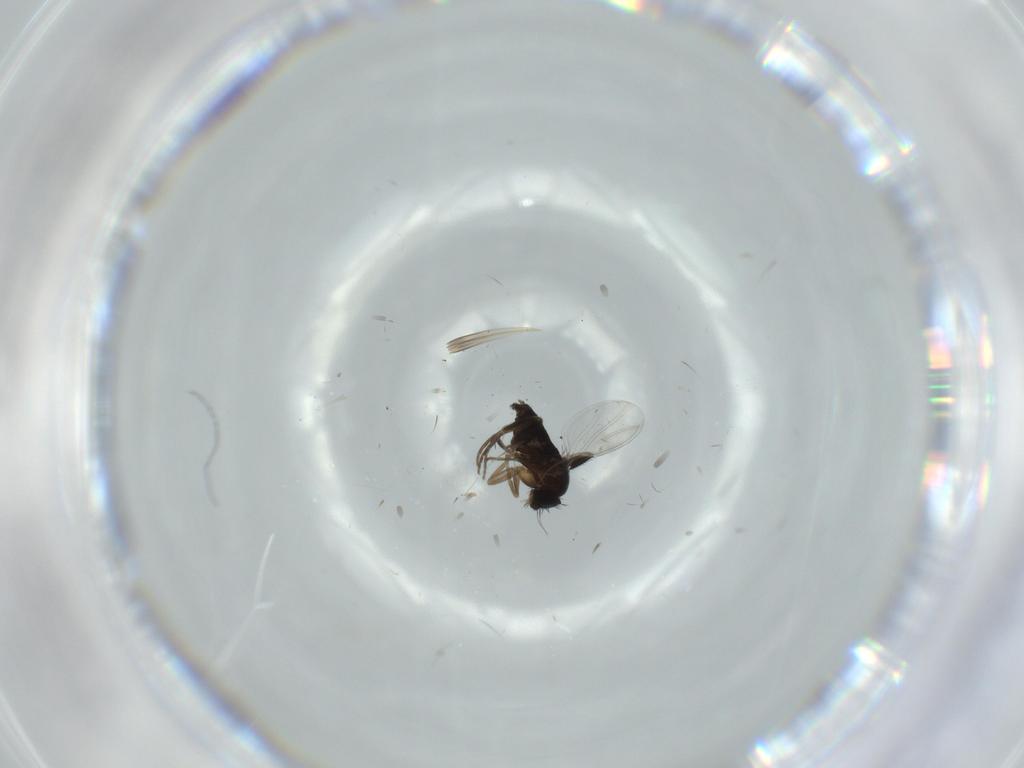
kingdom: Animalia
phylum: Arthropoda
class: Insecta
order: Diptera
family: Phoridae
